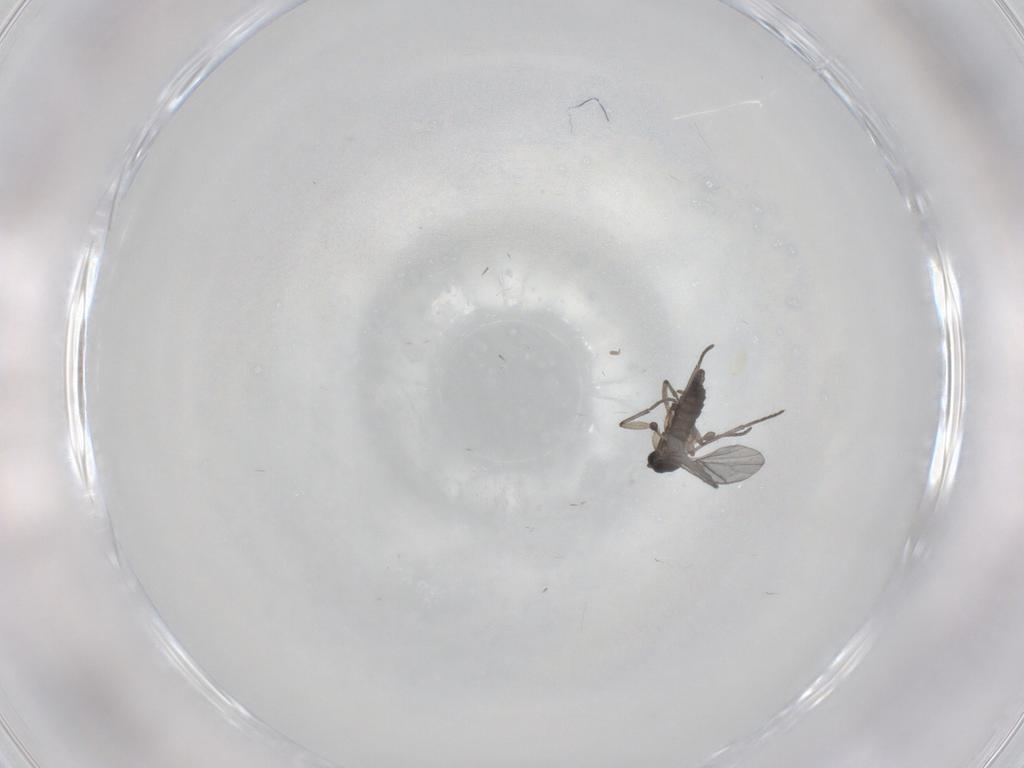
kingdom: Animalia
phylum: Arthropoda
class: Insecta
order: Diptera
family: Dolichopodidae
